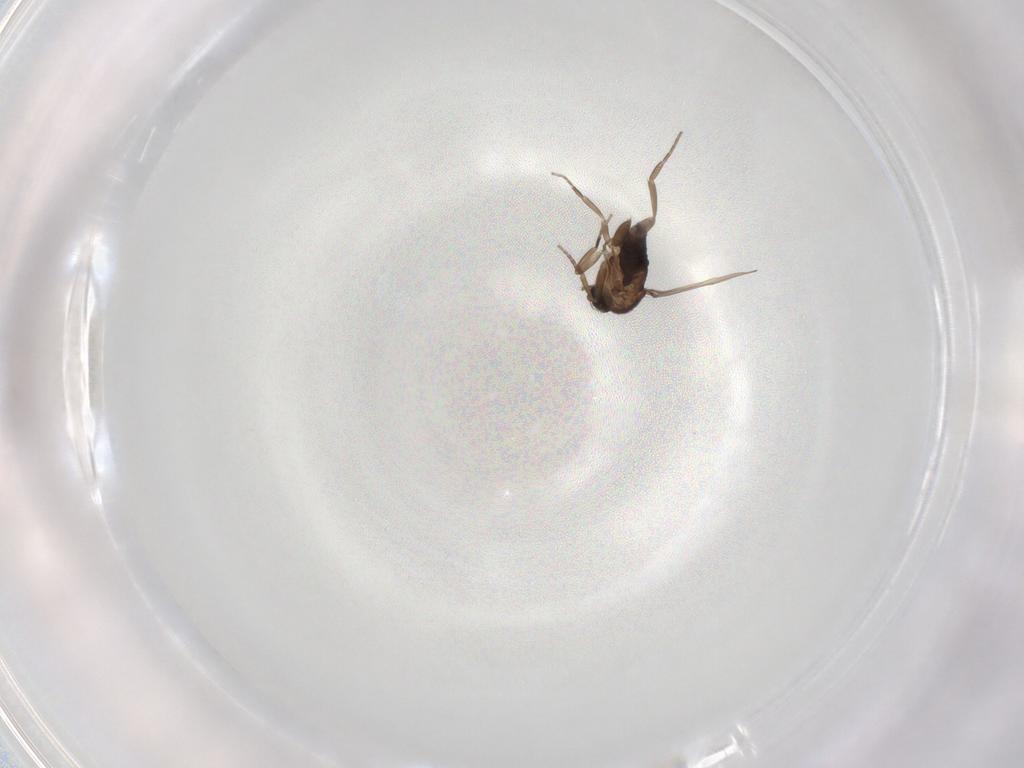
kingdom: Animalia
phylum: Arthropoda
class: Insecta
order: Diptera
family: Phoridae
